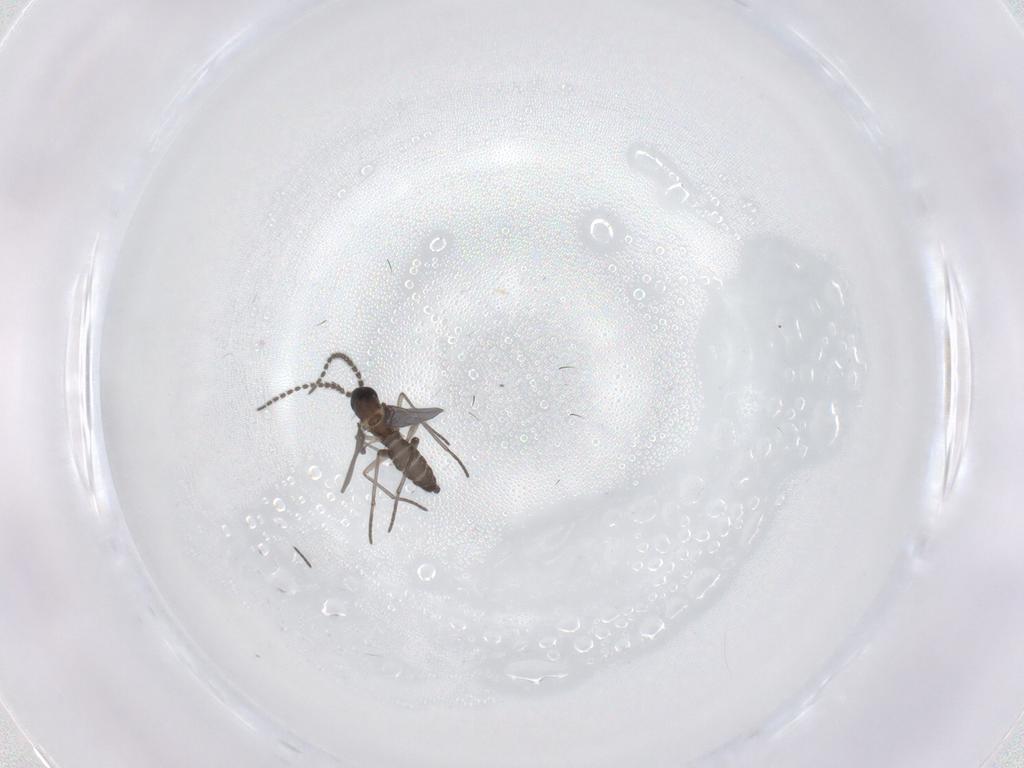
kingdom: Animalia
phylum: Arthropoda
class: Insecta
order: Diptera
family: Sciaridae
